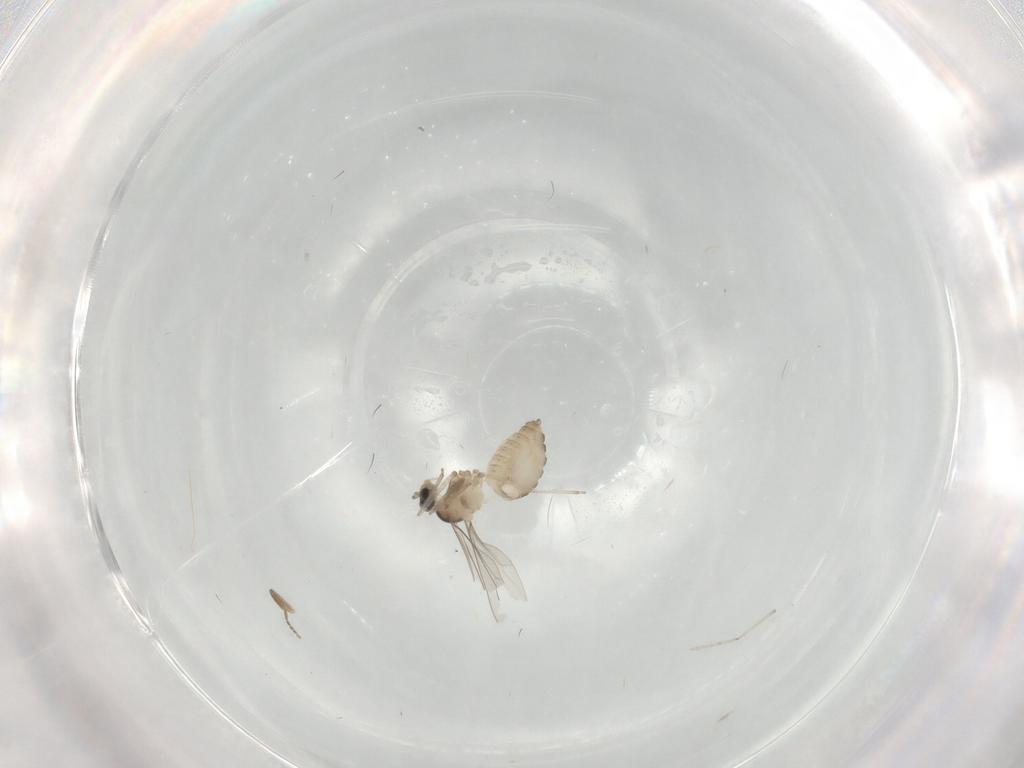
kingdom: Animalia
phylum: Arthropoda
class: Insecta
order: Diptera
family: Cecidomyiidae
